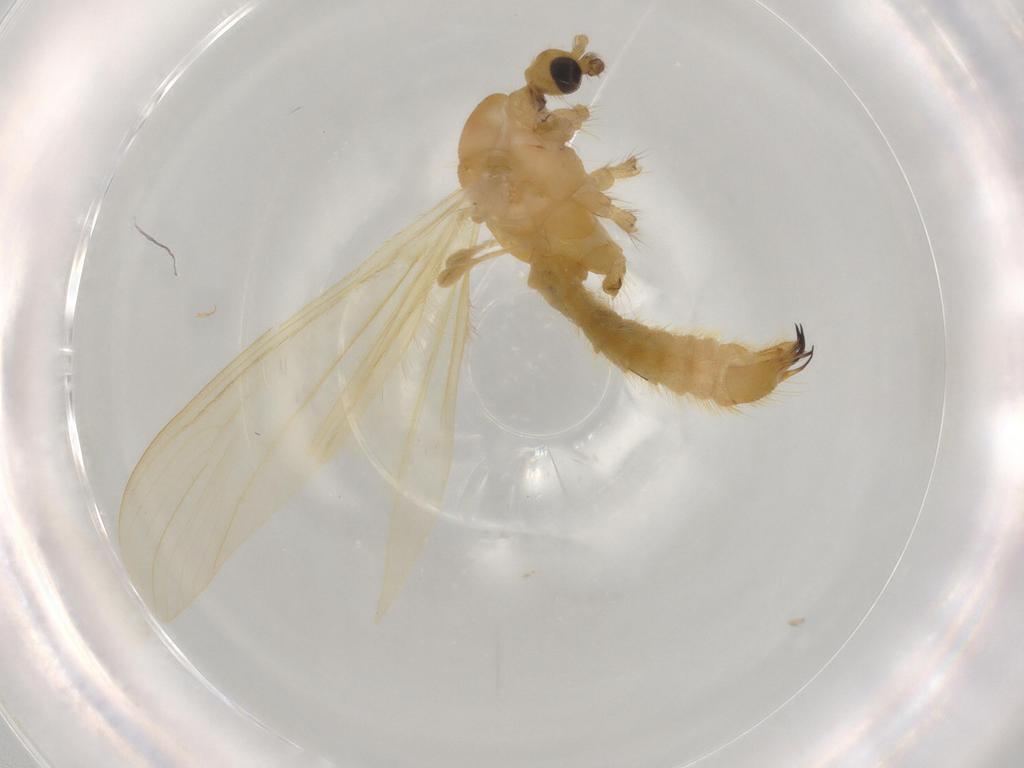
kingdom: Animalia
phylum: Arthropoda
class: Insecta
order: Diptera
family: Limoniidae
